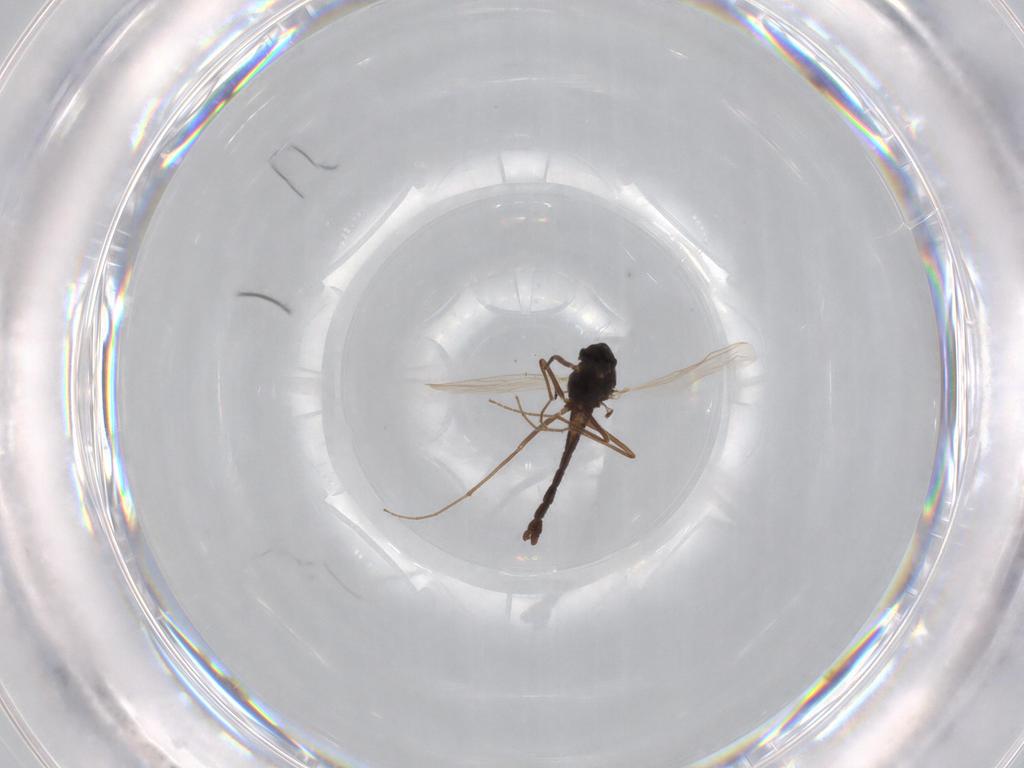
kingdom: Animalia
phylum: Arthropoda
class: Insecta
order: Diptera
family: Chironomidae
